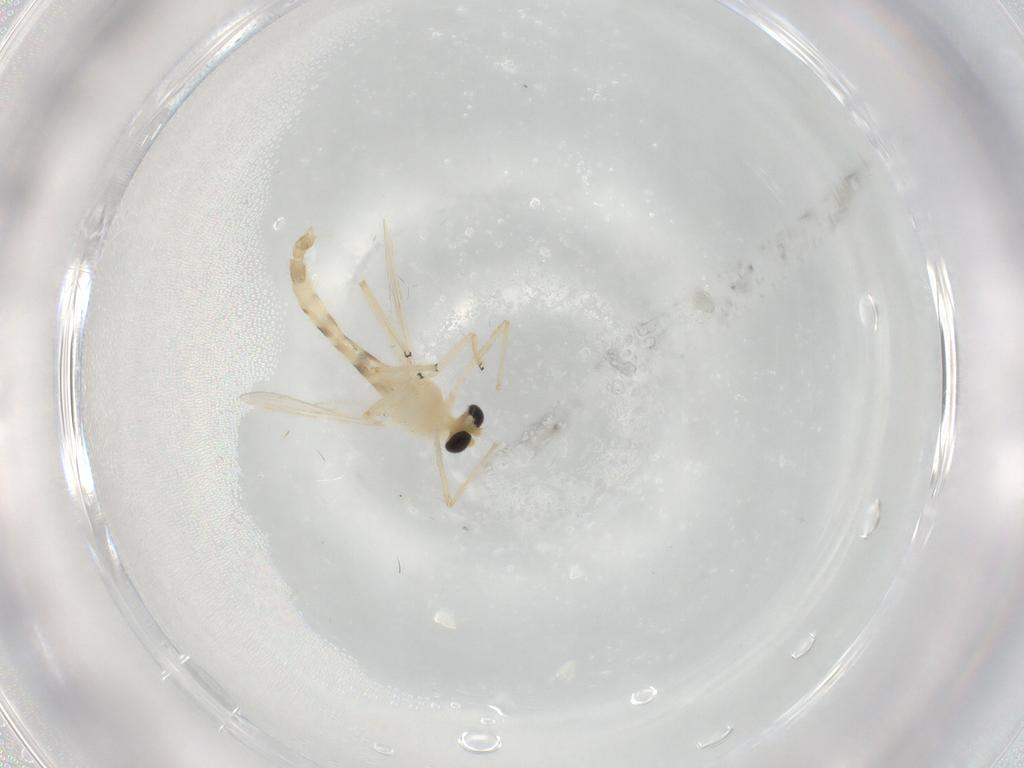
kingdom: Animalia
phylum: Arthropoda
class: Insecta
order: Diptera
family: Chironomidae
